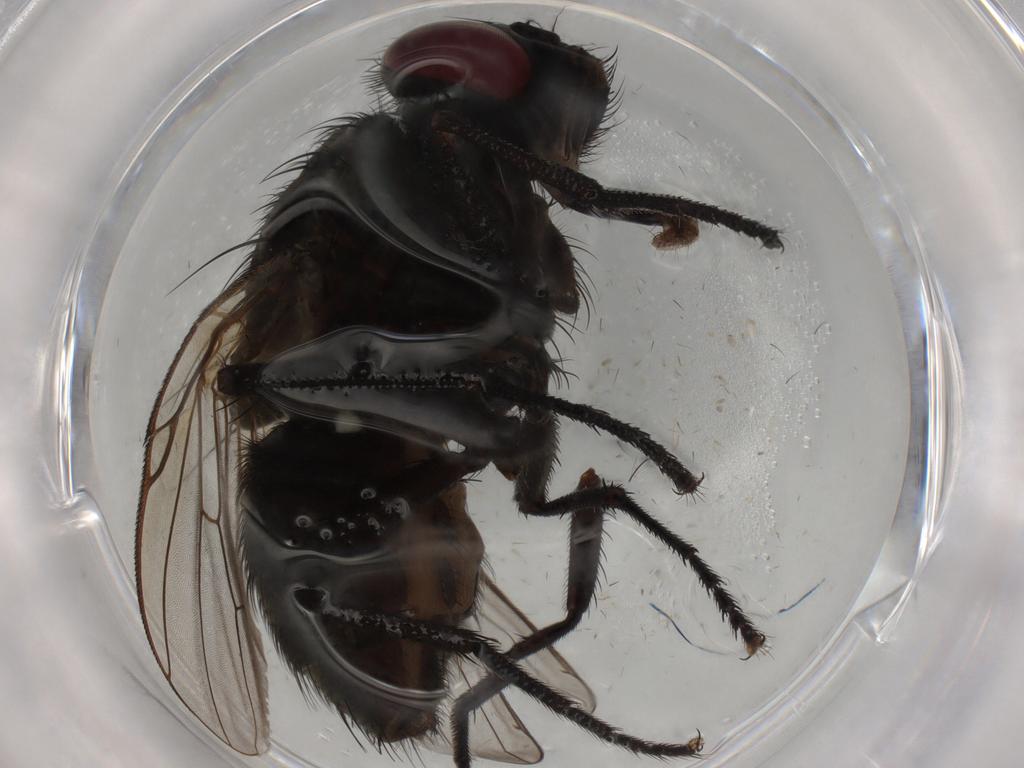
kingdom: Animalia
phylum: Arthropoda
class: Insecta
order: Diptera
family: Muscidae
